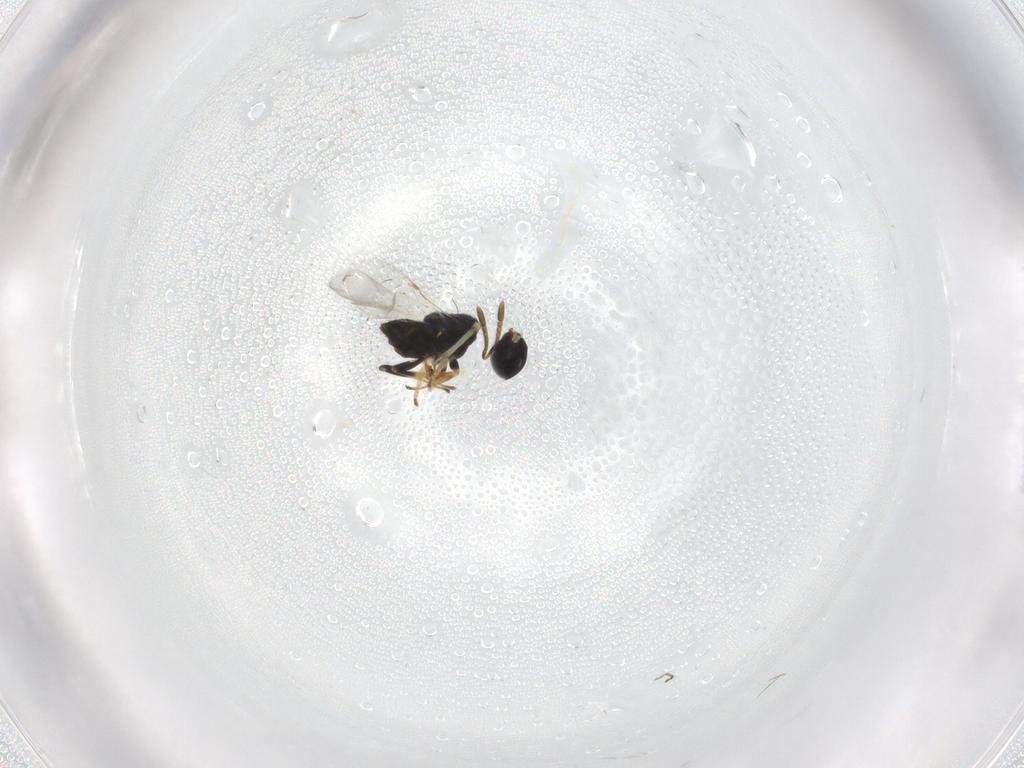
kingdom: Animalia
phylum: Arthropoda
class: Insecta
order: Hymenoptera
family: Encyrtidae
